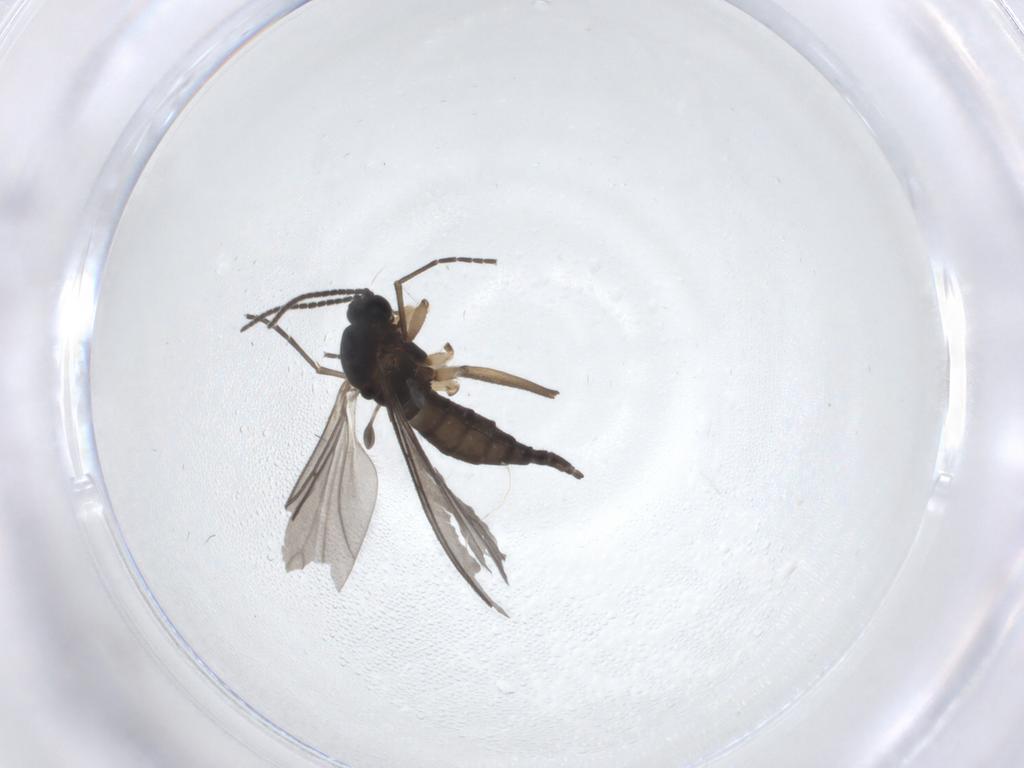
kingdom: Animalia
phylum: Arthropoda
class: Insecta
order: Diptera
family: Sciaridae
